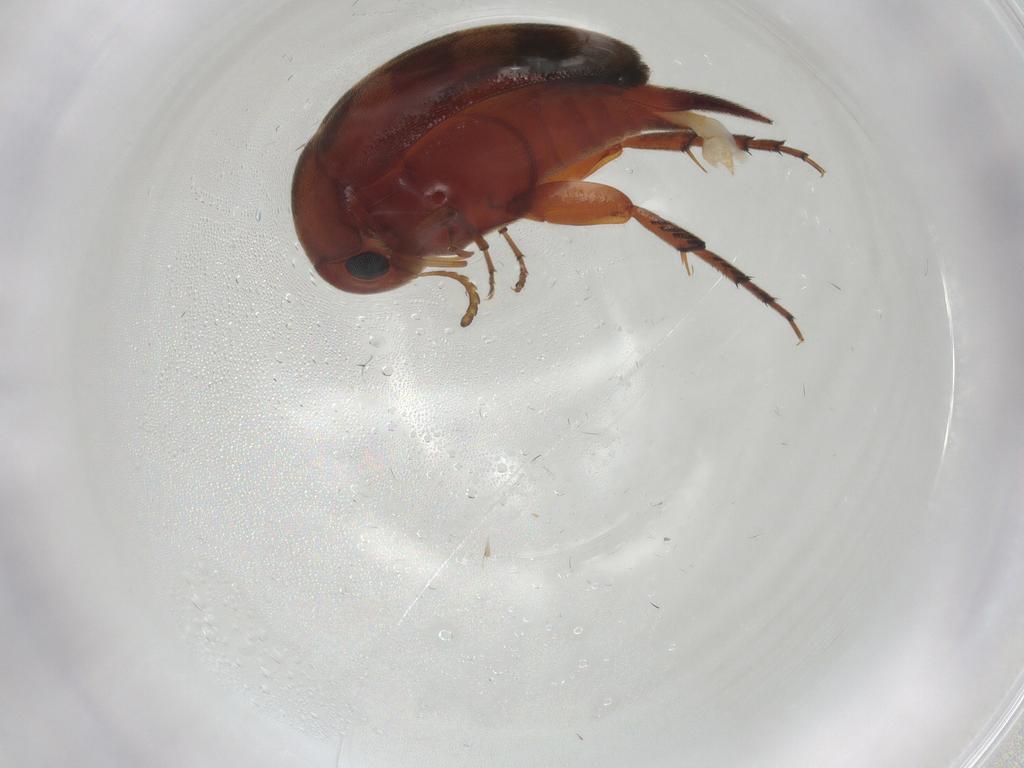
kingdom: Animalia
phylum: Arthropoda
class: Insecta
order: Coleoptera
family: Mordellidae
